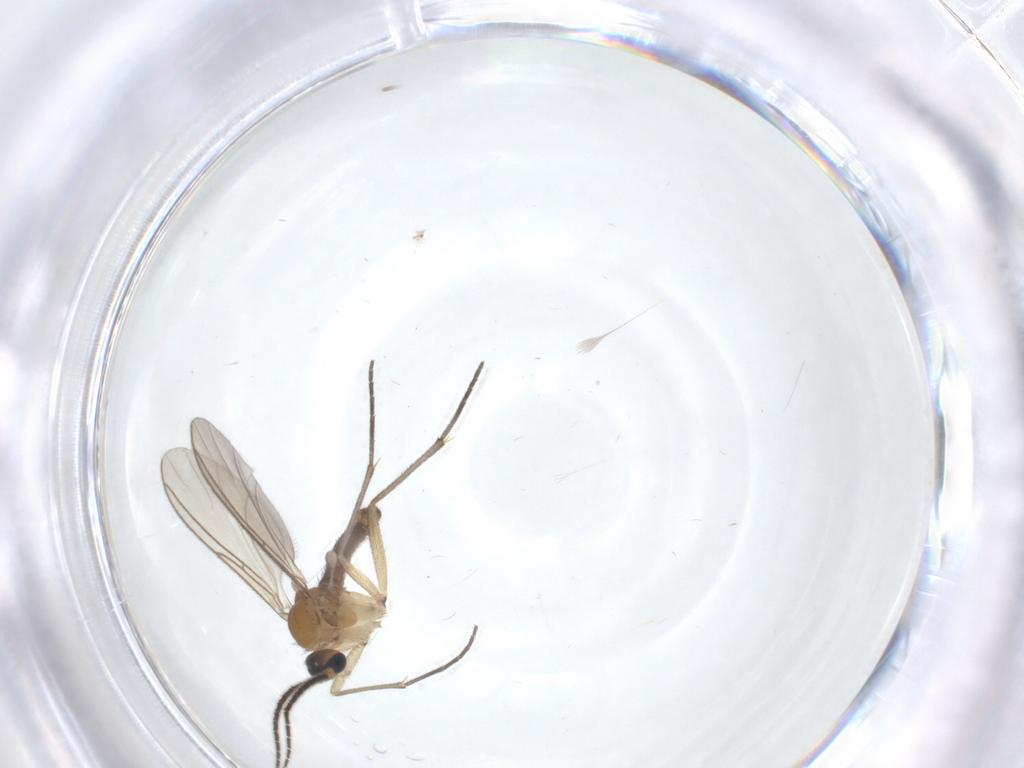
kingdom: Animalia
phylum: Arthropoda
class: Insecta
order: Diptera
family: Sciaridae
